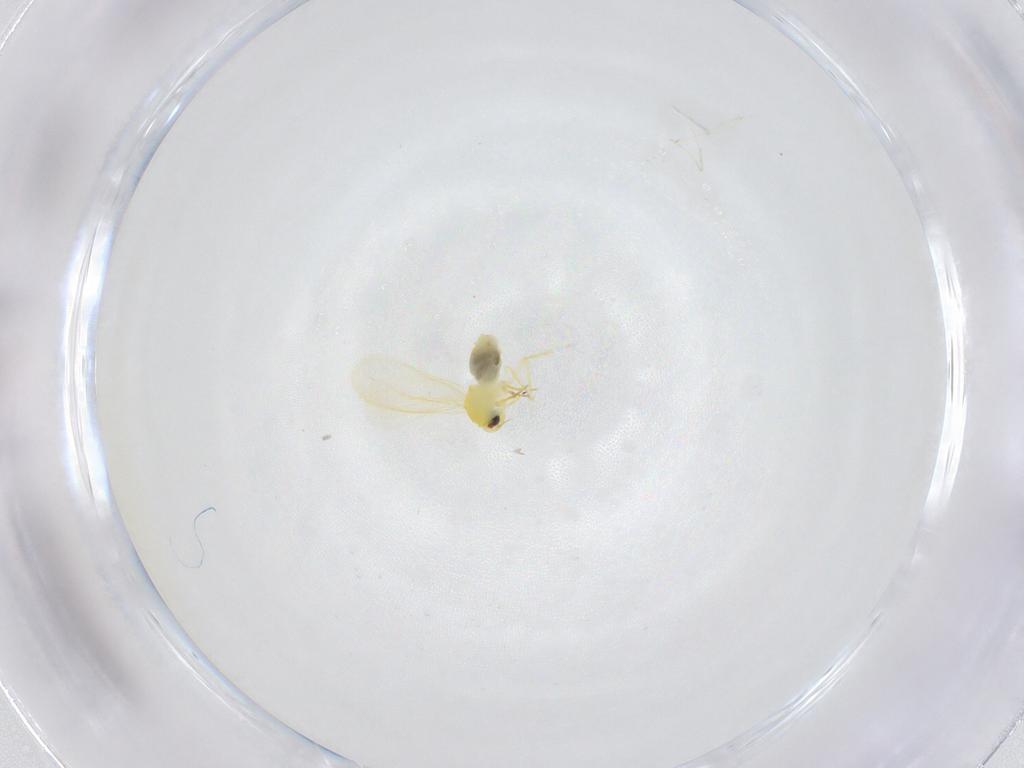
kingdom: Animalia
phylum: Arthropoda
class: Insecta
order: Hemiptera
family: Aleyrodidae
